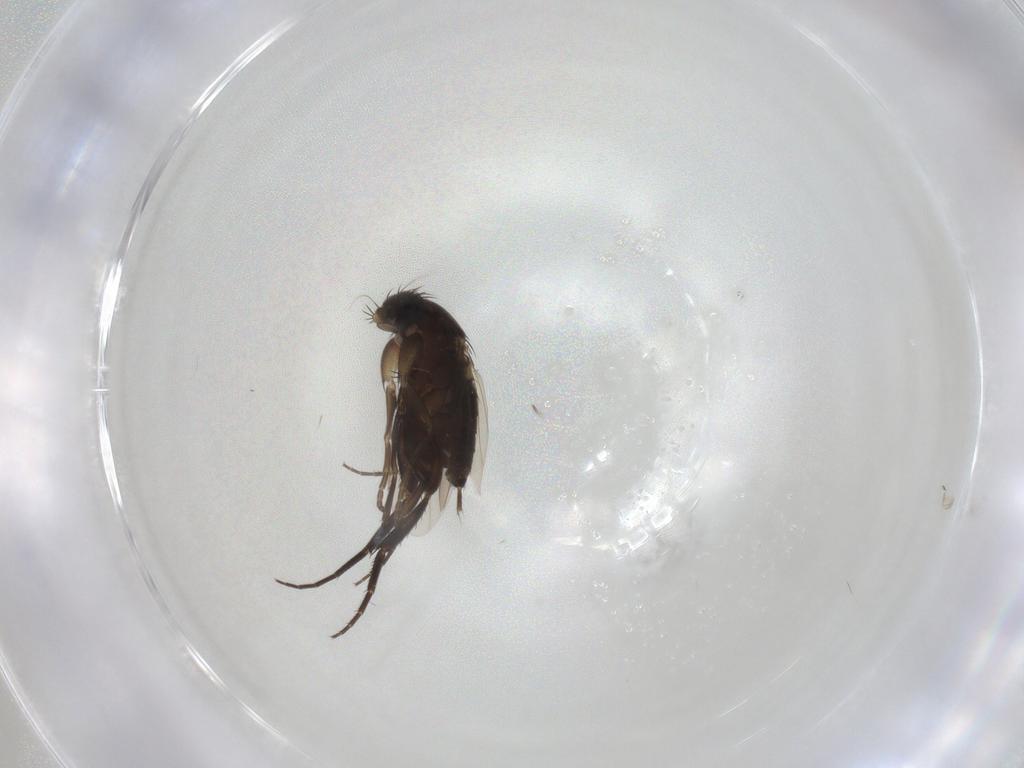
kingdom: Animalia
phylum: Arthropoda
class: Insecta
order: Diptera
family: Phoridae
